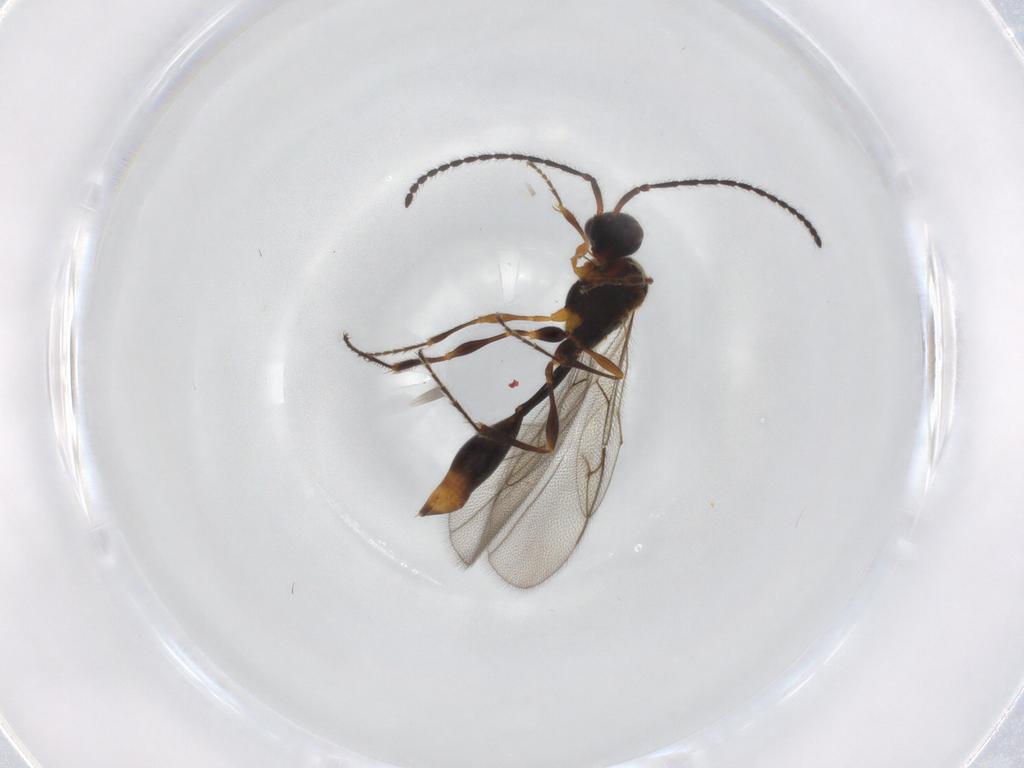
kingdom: Animalia
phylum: Arthropoda
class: Insecta
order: Hymenoptera
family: Diapriidae
